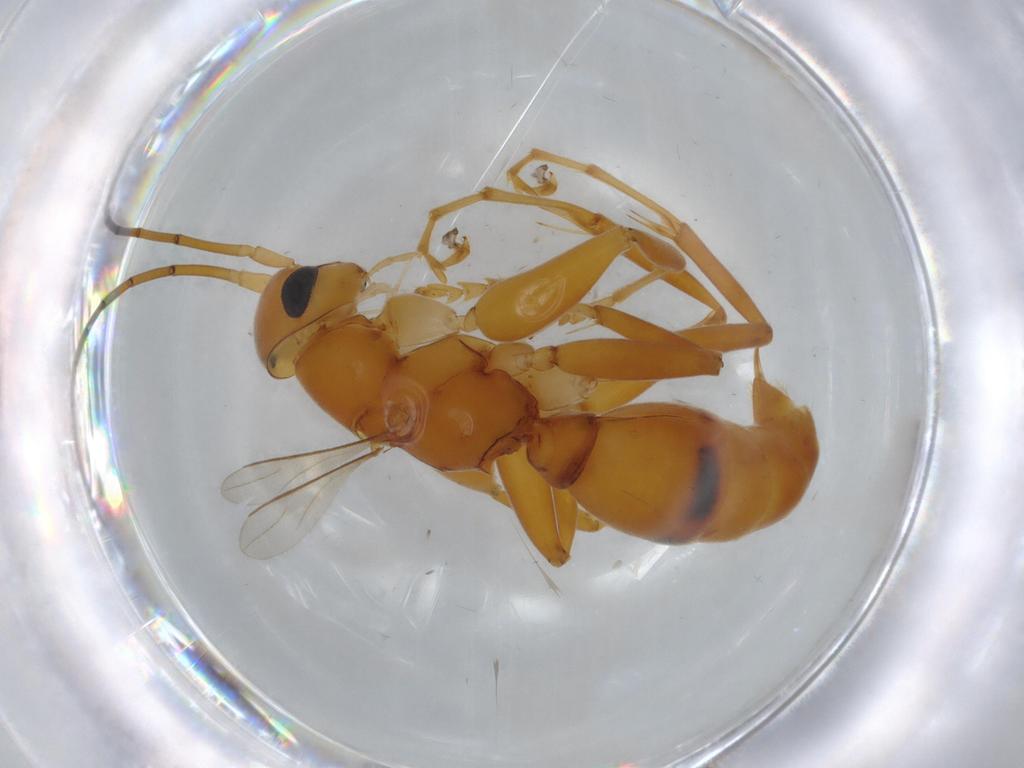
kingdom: Animalia
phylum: Arthropoda
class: Insecta
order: Hymenoptera
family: Rhopalosomatidae
